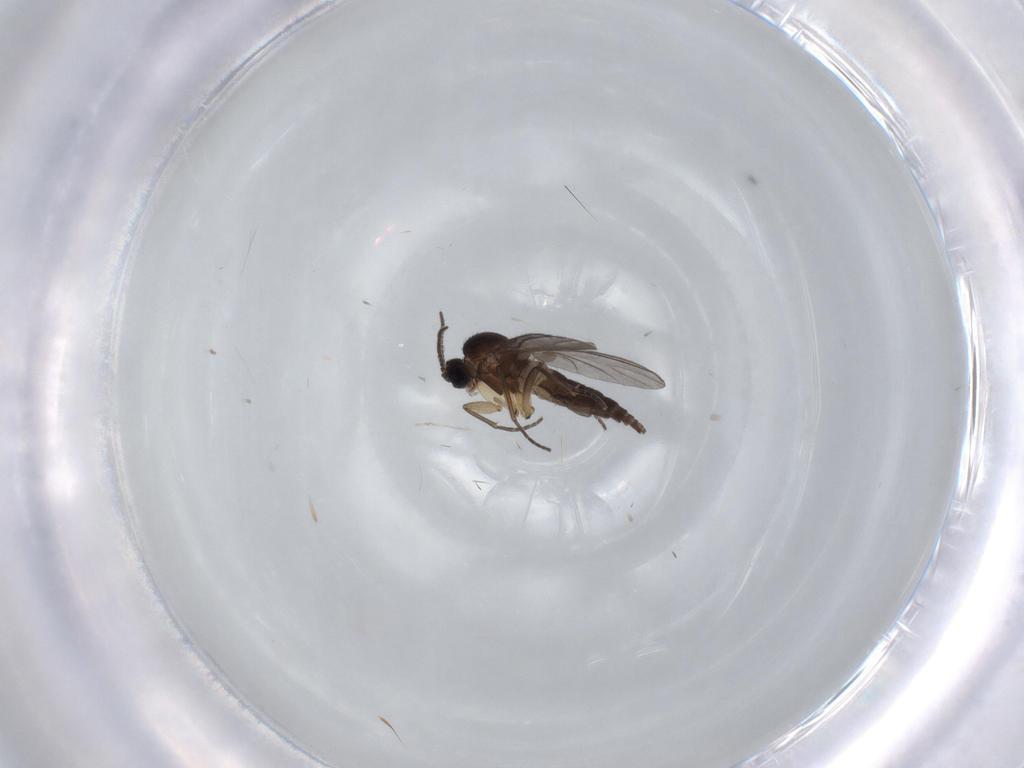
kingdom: Animalia
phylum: Arthropoda
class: Insecta
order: Diptera
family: Sciaridae
